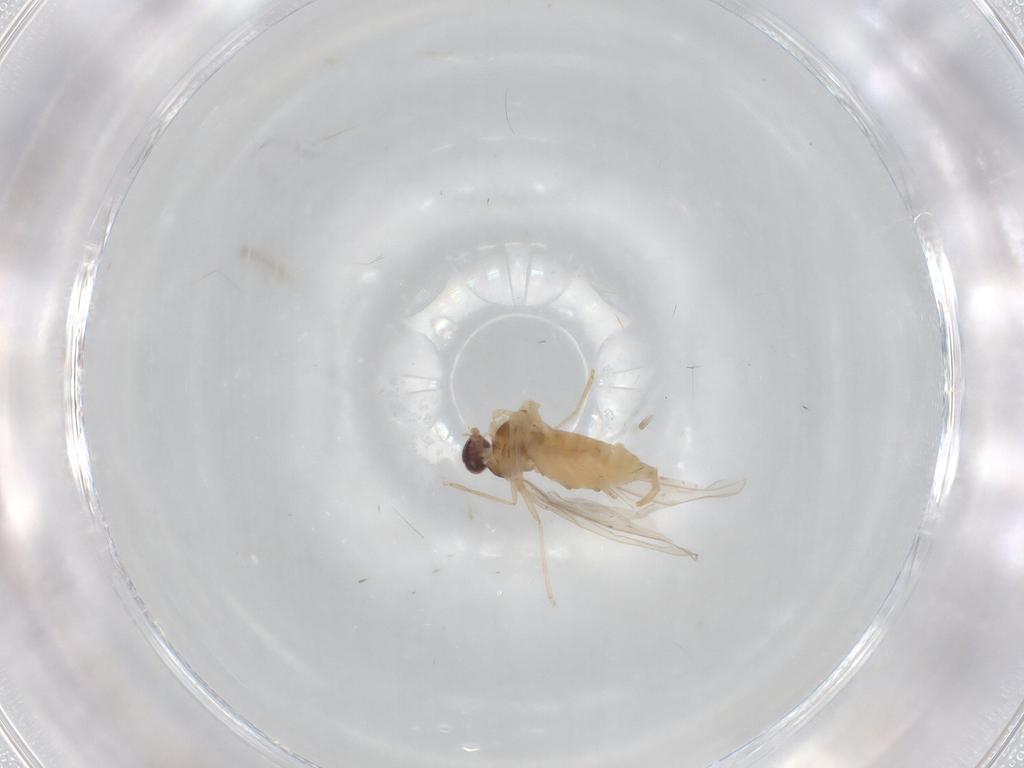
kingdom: Animalia
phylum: Arthropoda
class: Insecta
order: Diptera
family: Cecidomyiidae
